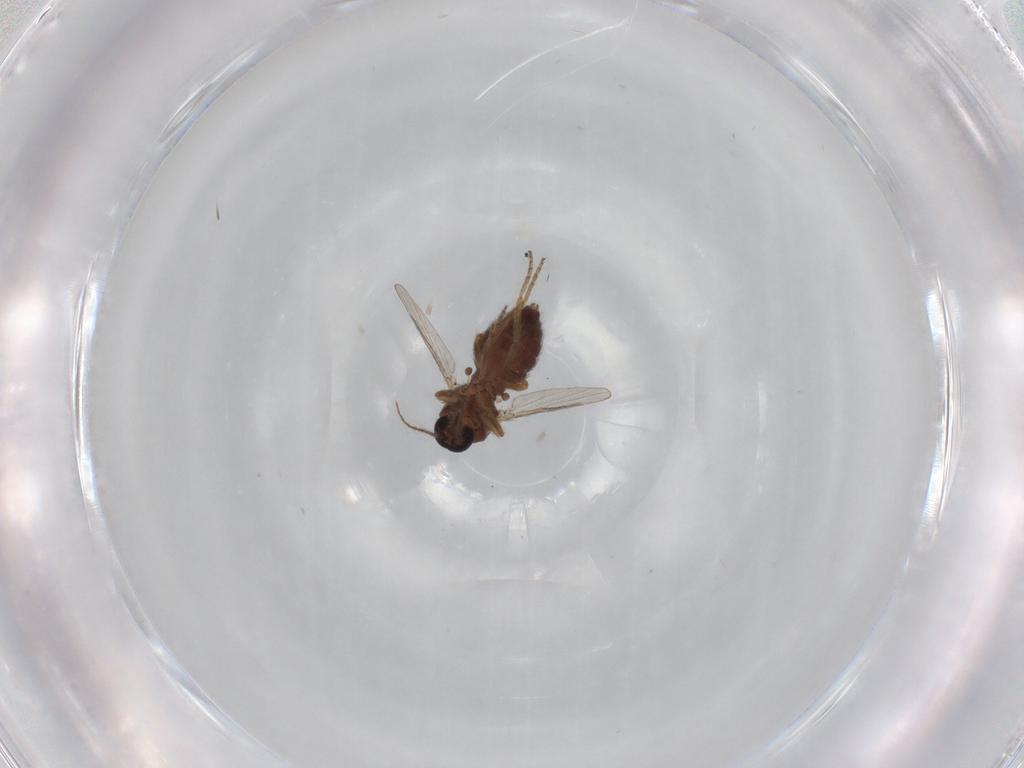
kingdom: Animalia
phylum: Arthropoda
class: Insecta
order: Diptera
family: Ceratopogonidae
